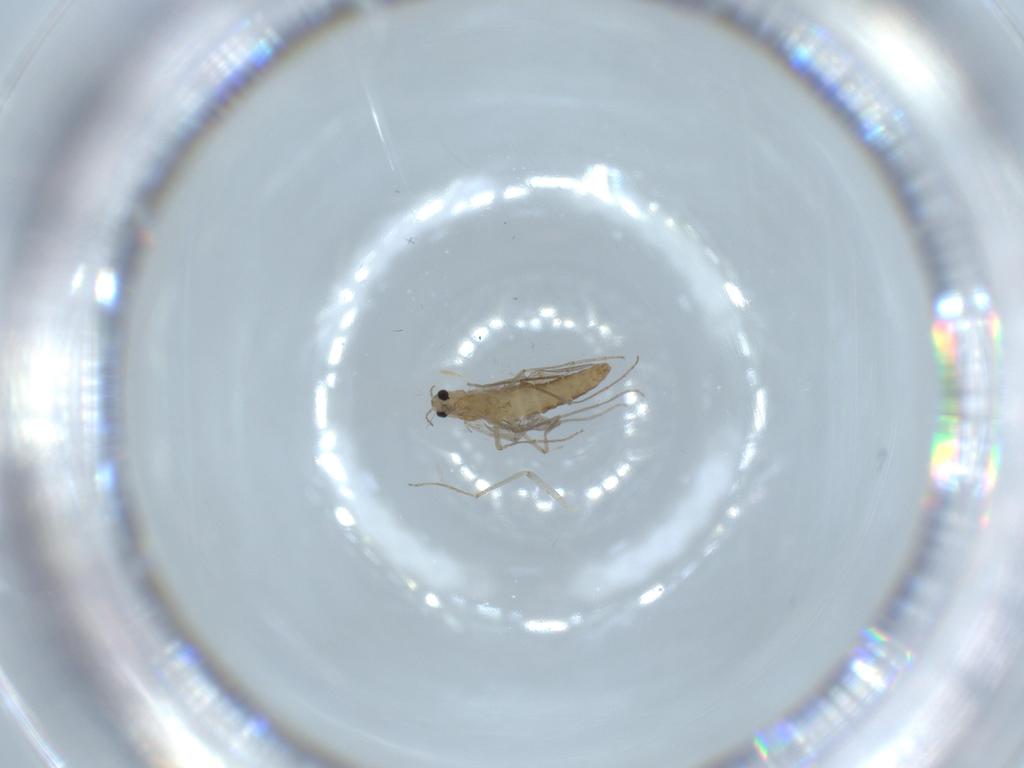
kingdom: Animalia
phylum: Arthropoda
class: Insecta
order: Diptera
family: Chironomidae
